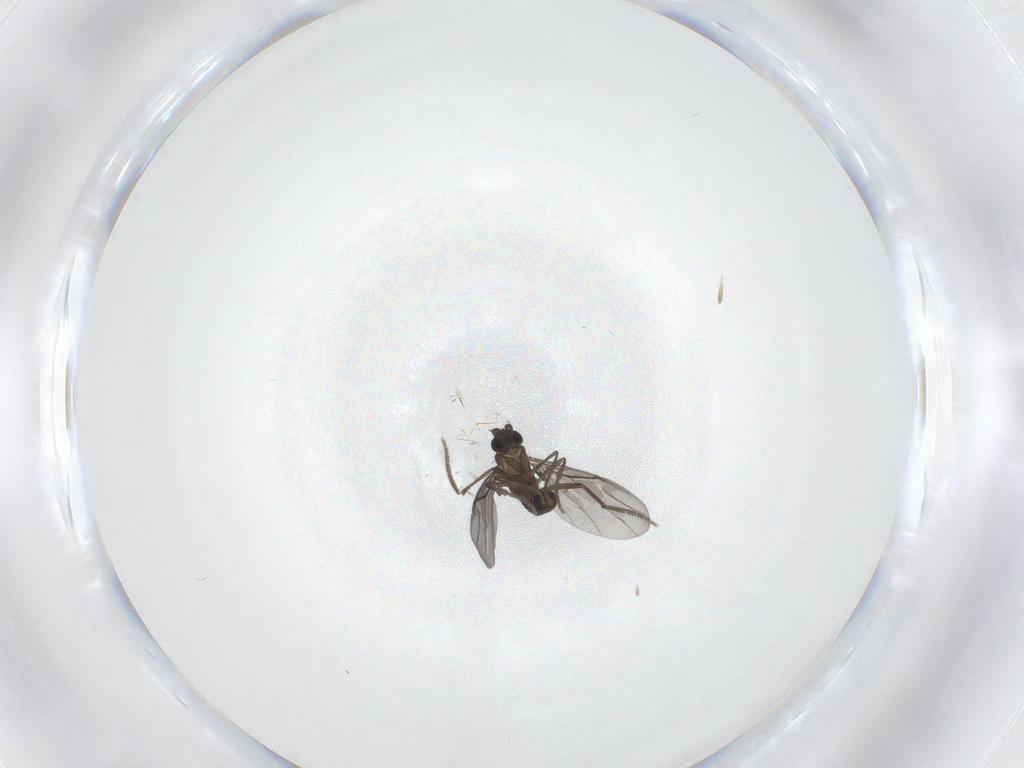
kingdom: Animalia
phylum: Arthropoda
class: Insecta
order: Diptera
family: Phoridae
